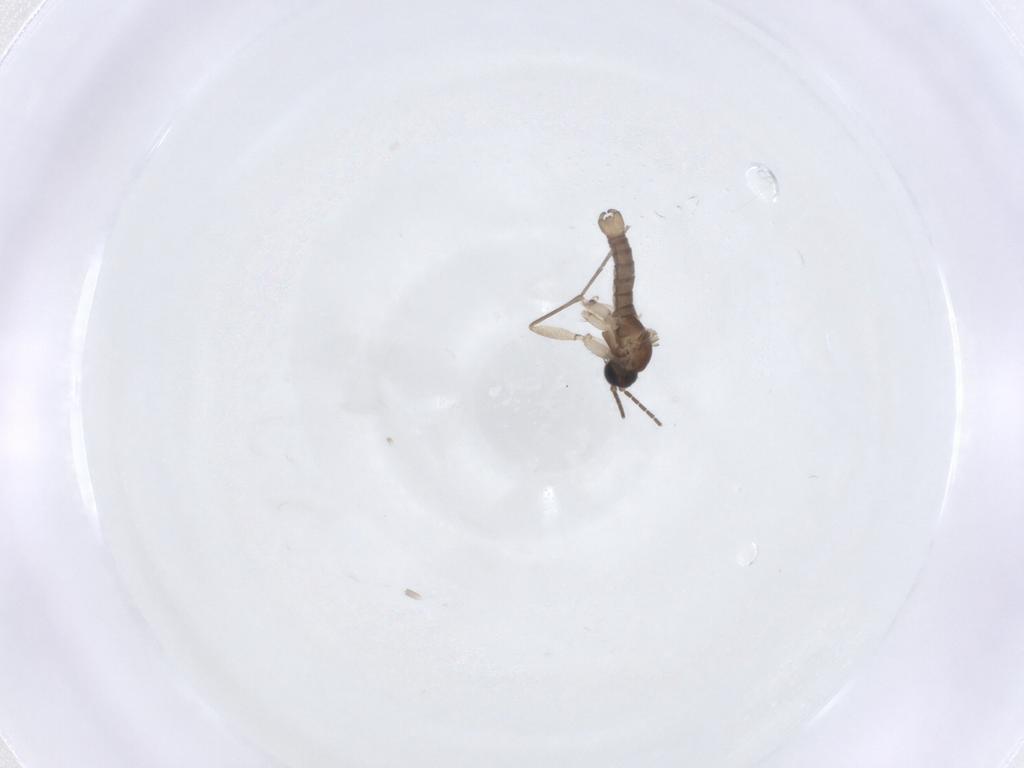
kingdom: Animalia
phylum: Arthropoda
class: Insecta
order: Diptera
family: Sciaridae
